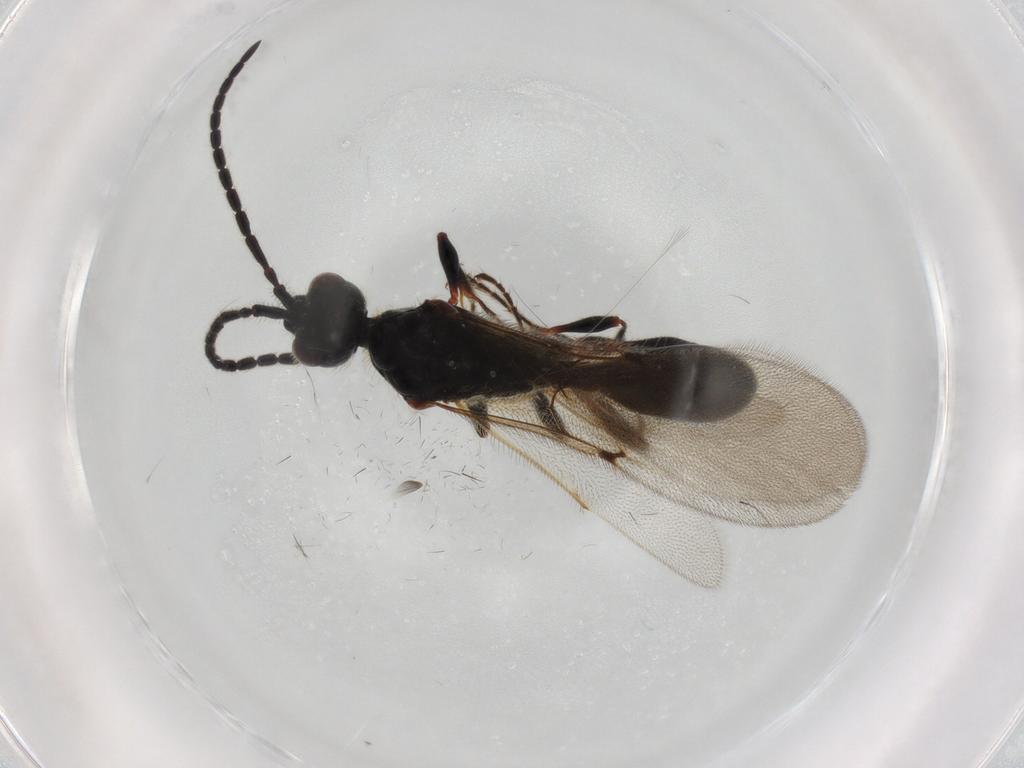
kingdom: Animalia
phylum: Arthropoda
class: Insecta
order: Hymenoptera
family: Diapriidae
